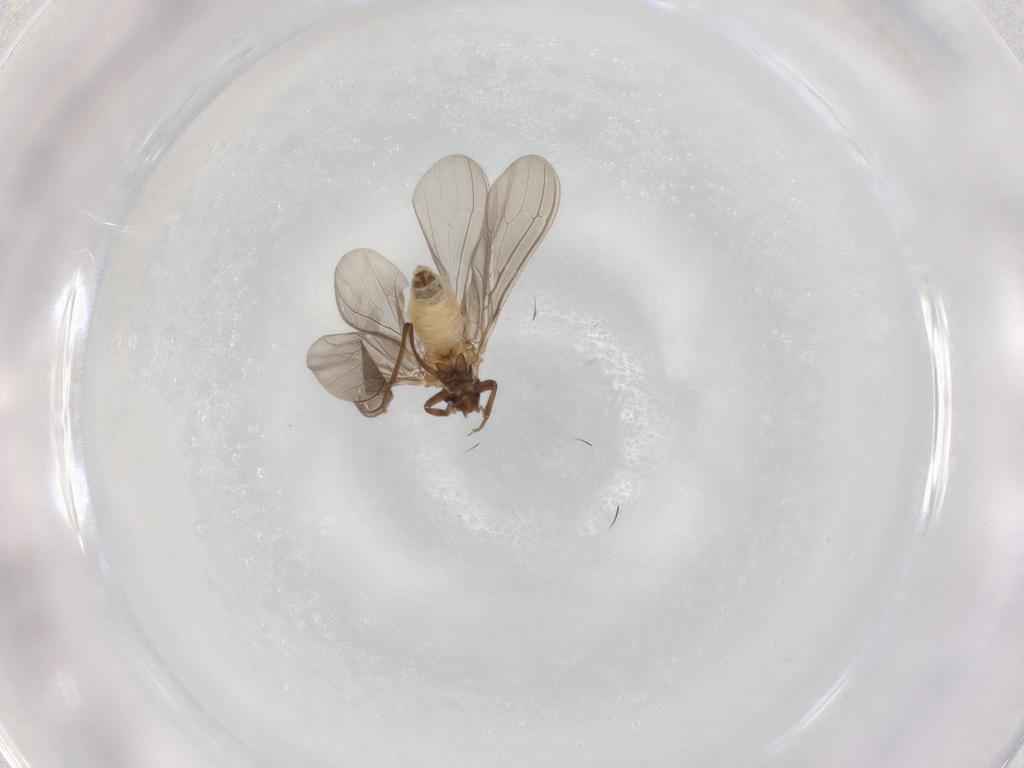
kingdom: Animalia
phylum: Arthropoda
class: Insecta
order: Neuroptera
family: Coniopterygidae
